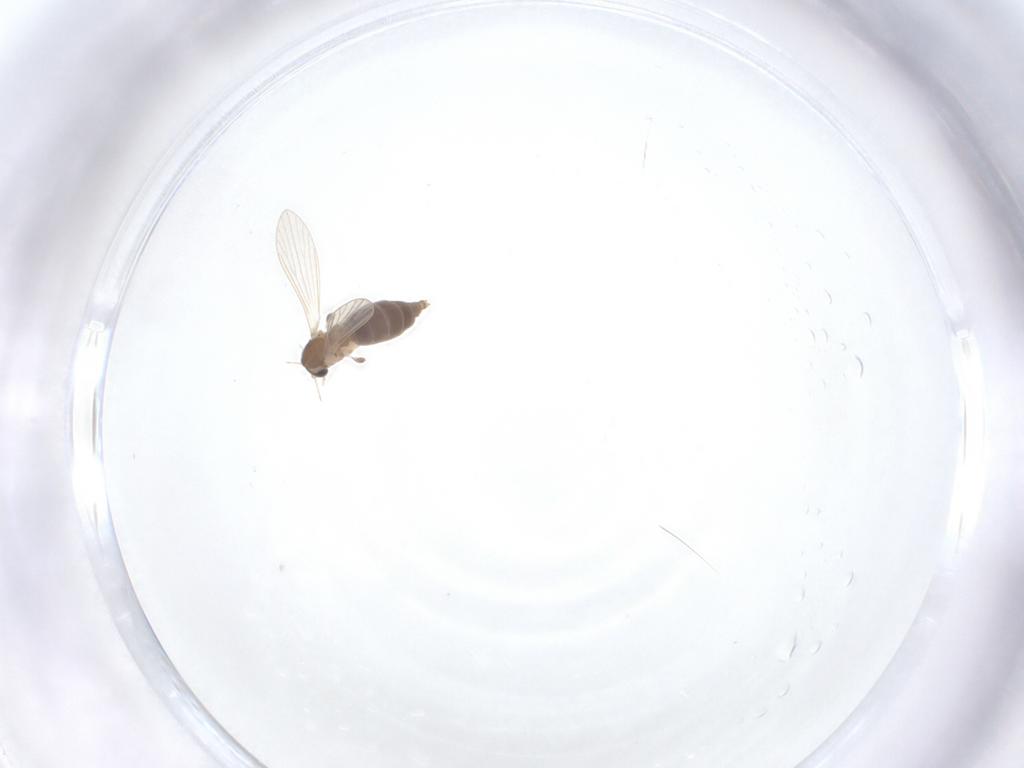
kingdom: Animalia
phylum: Arthropoda
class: Insecta
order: Diptera
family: Psychodidae
